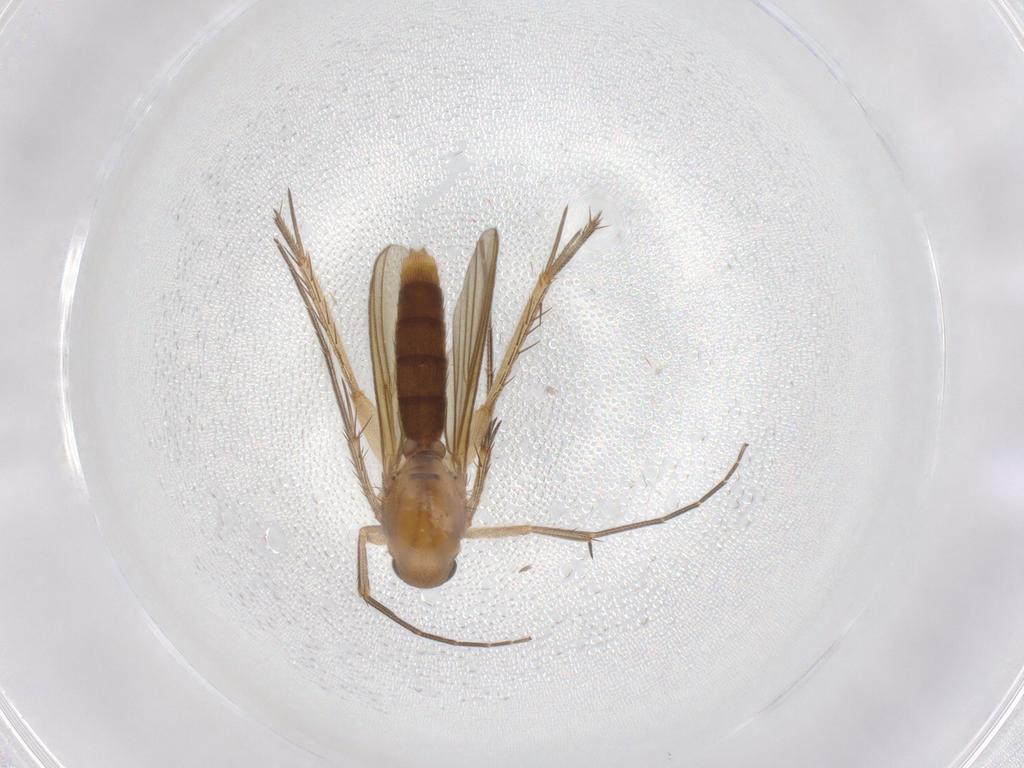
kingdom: Animalia
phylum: Arthropoda
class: Insecta
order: Diptera
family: Mycetophilidae
